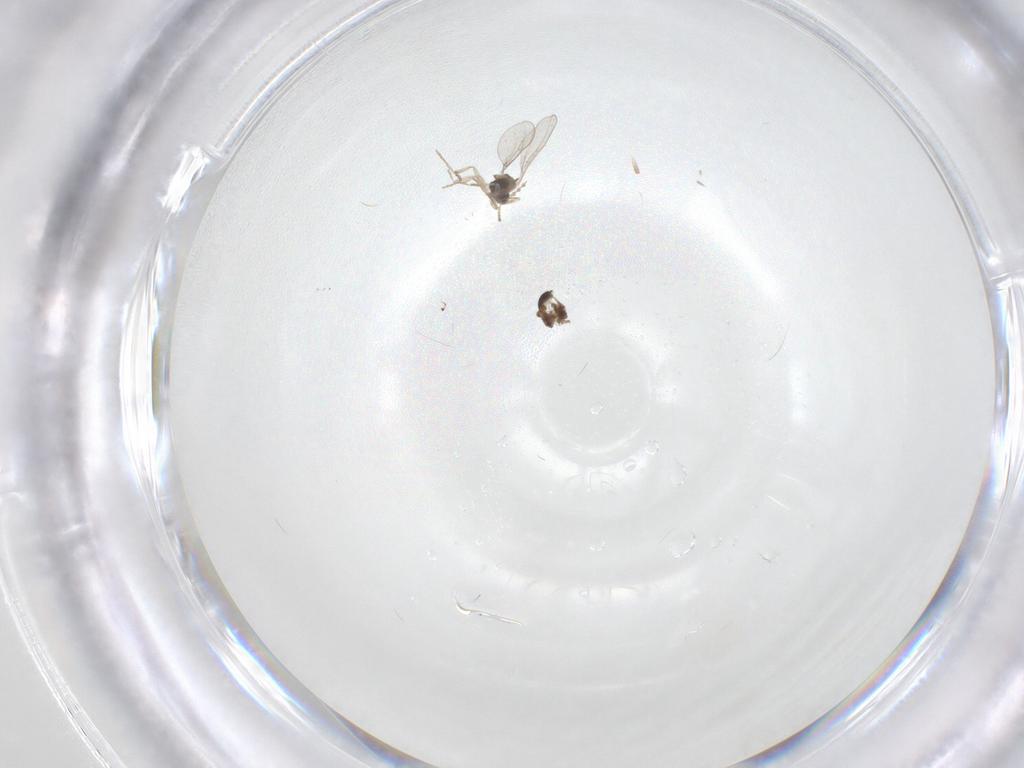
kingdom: Animalia
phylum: Arthropoda
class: Insecta
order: Diptera
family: Cecidomyiidae
